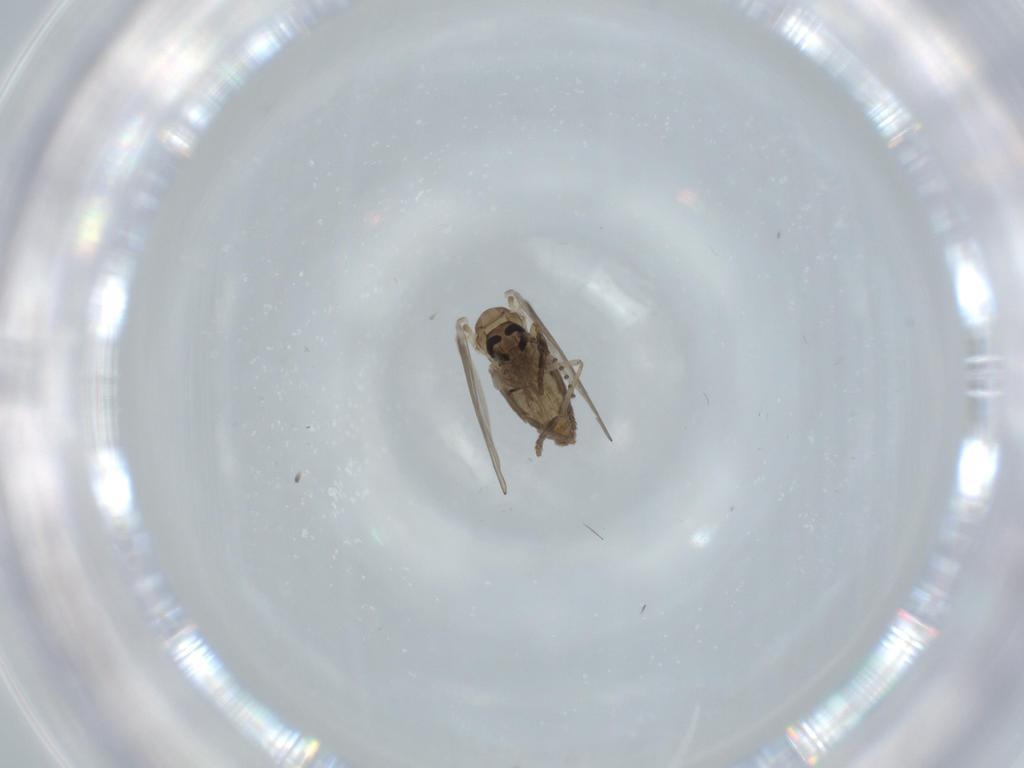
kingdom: Animalia
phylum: Arthropoda
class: Insecta
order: Diptera
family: Psychodidae
